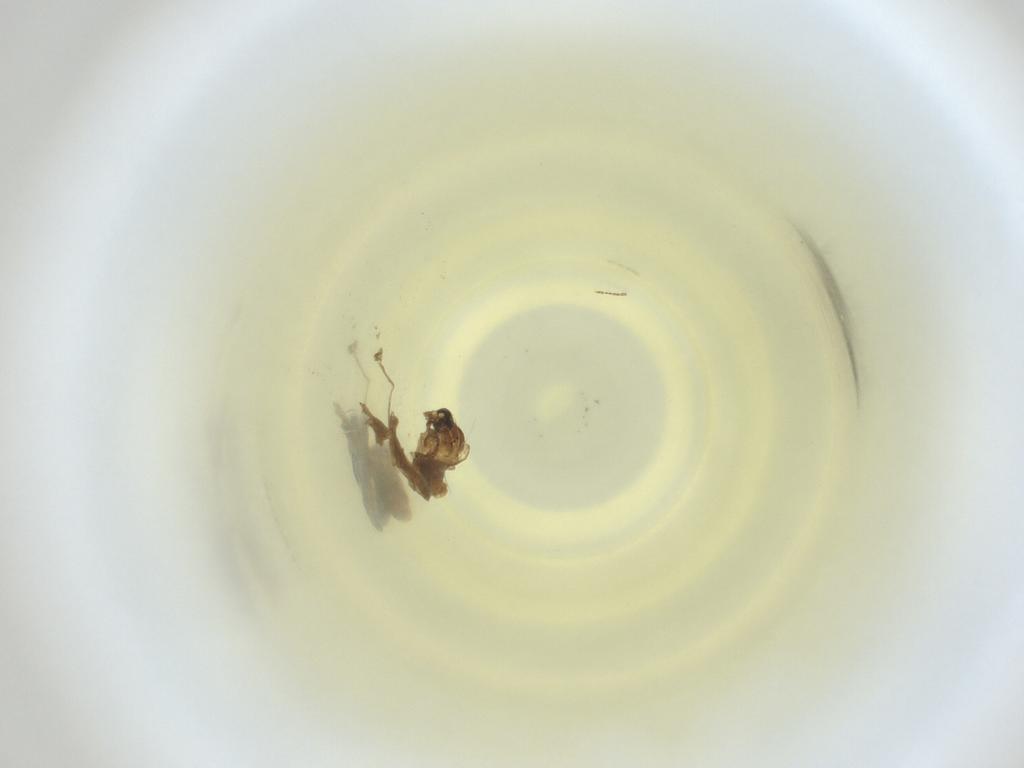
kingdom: Animalia
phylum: Arthropoda
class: Insecta
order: Diptera
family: Cecidomyiidae
